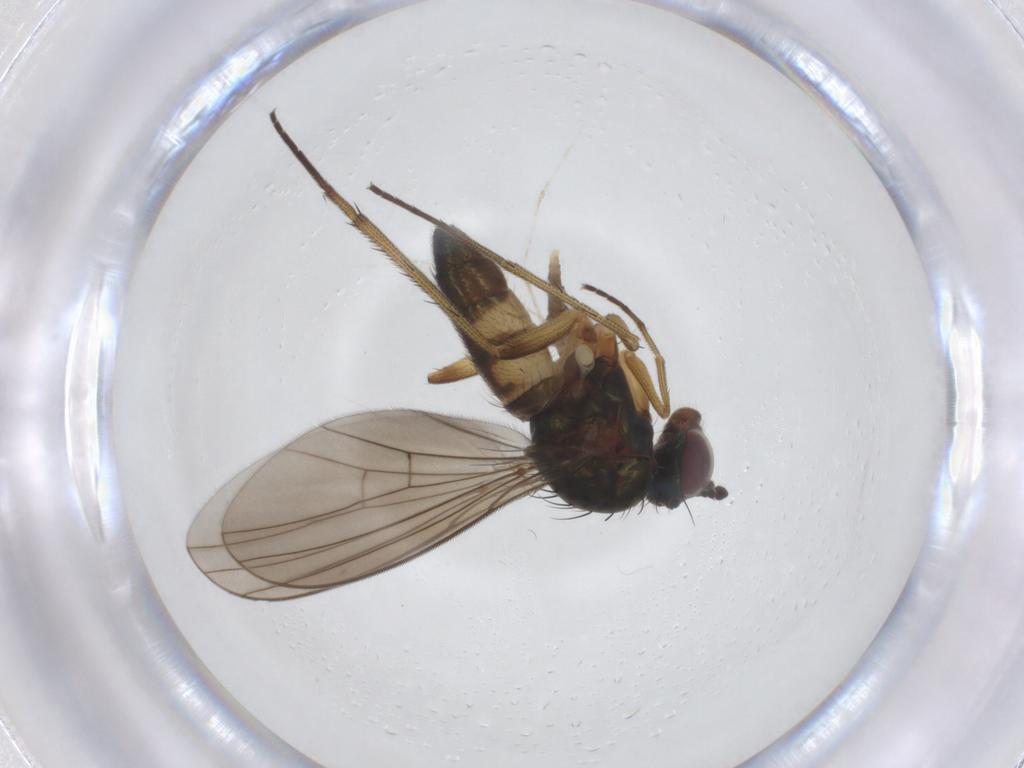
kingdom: Animalia
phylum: Arthropoda
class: Insecta
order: Diptera
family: Dolichopodidae
